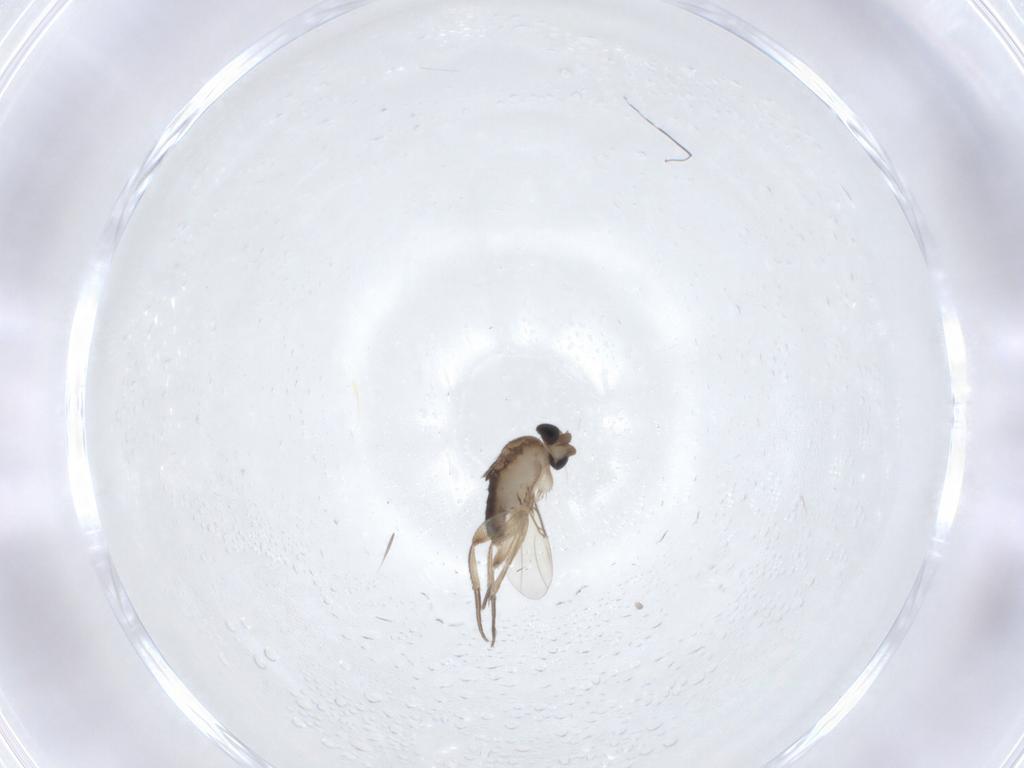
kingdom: Animalia
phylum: Arthropoda
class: Insecta
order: Diptera
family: Phoridae
